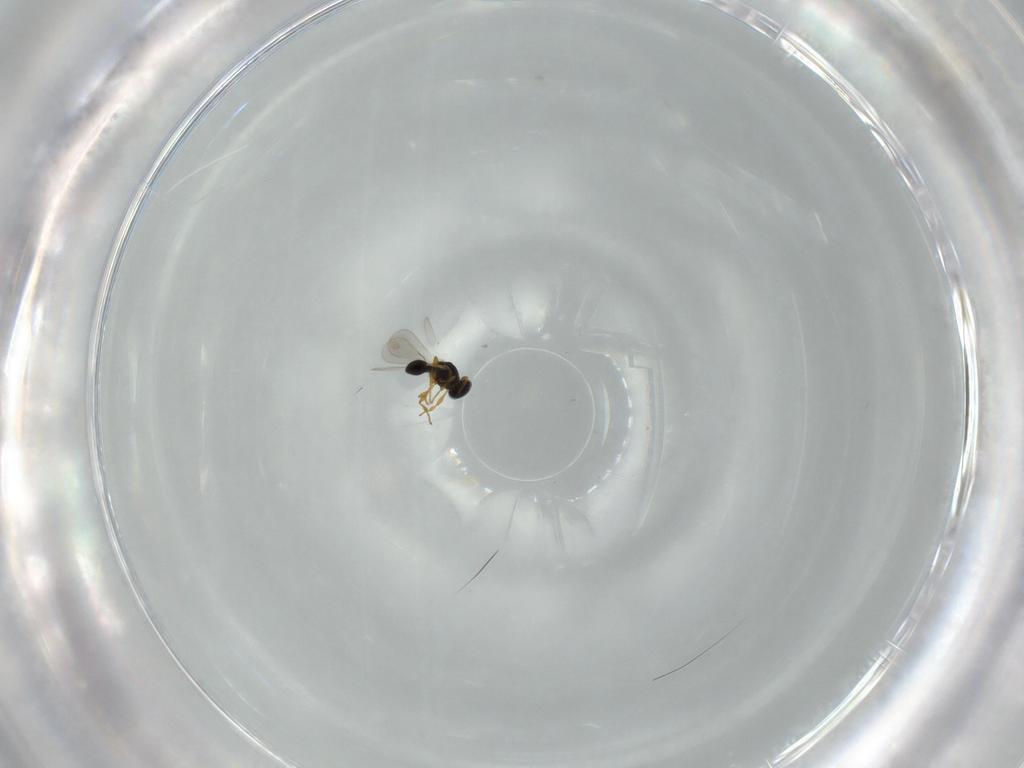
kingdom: Animalia
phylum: Arthropoda
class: Insecta
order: Hymenoptera
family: Platygastridae
